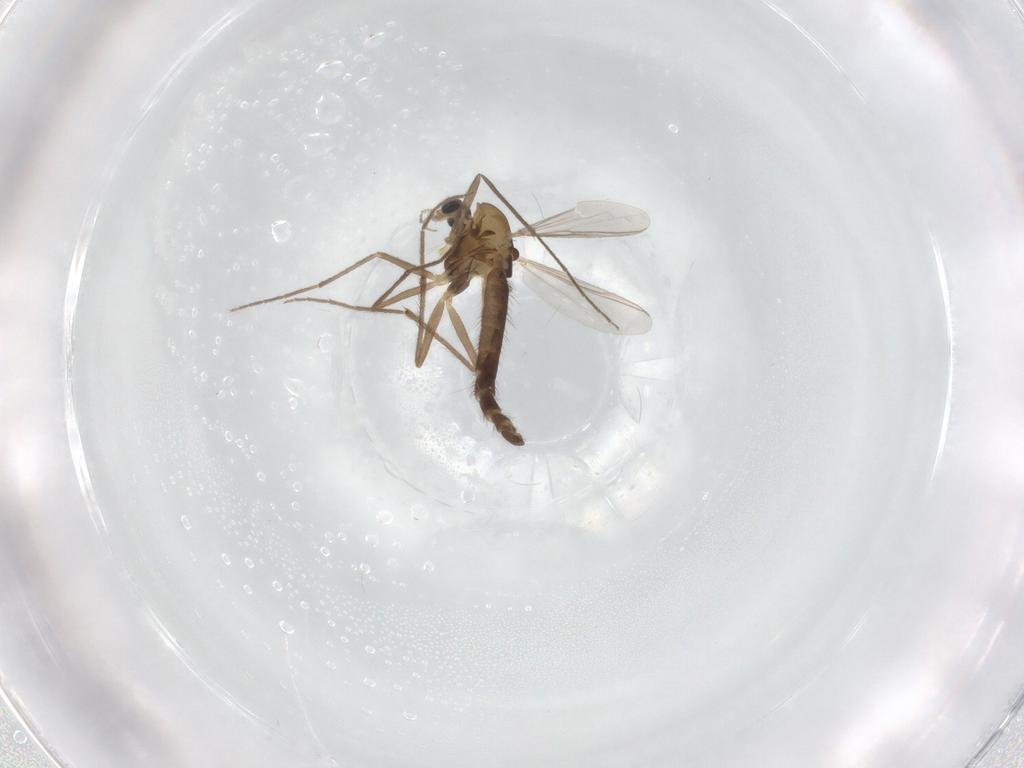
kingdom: Animalia
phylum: Arthropoda
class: Insecta
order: Diptera
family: Chironomidae
